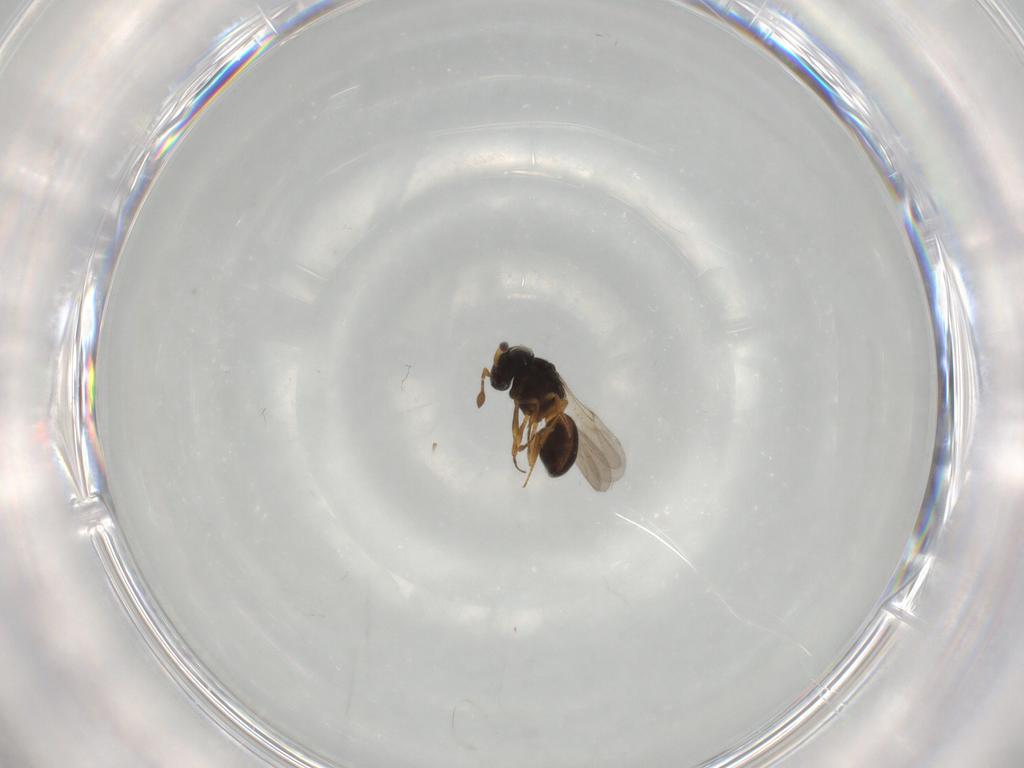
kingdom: Animalia
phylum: Arthropoda
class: Insecta
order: Hymenoptera
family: Scelionidae
